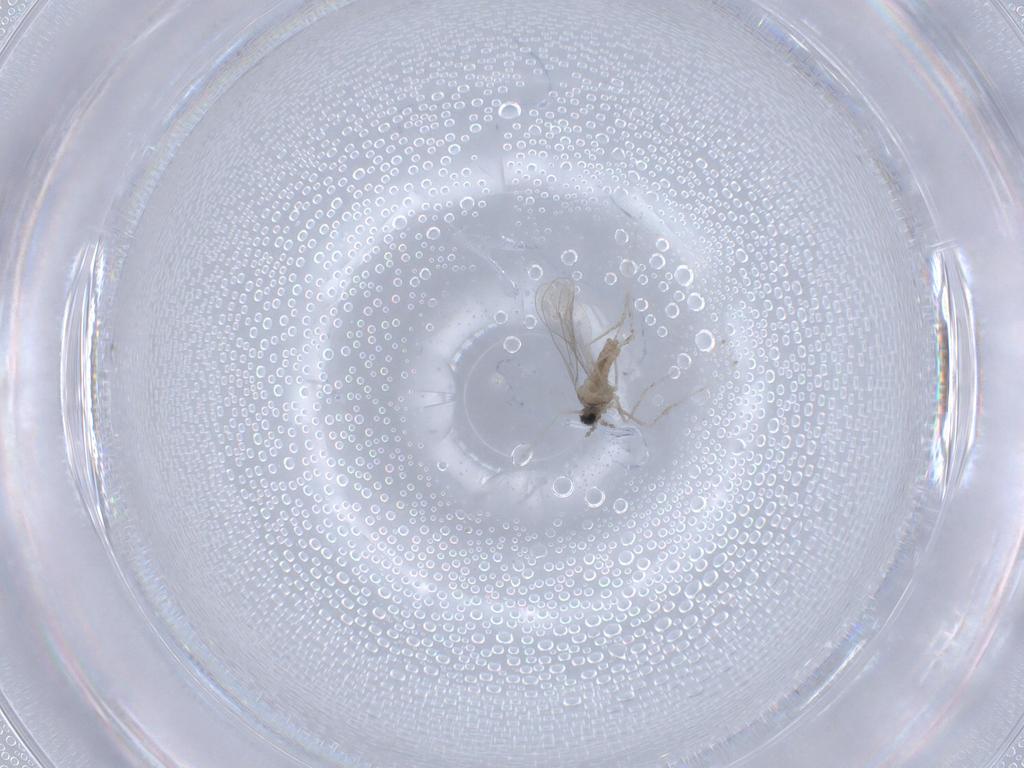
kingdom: Animalia
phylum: Arthropoda
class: Insecta
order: Diptera
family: Cecidomyiidae
